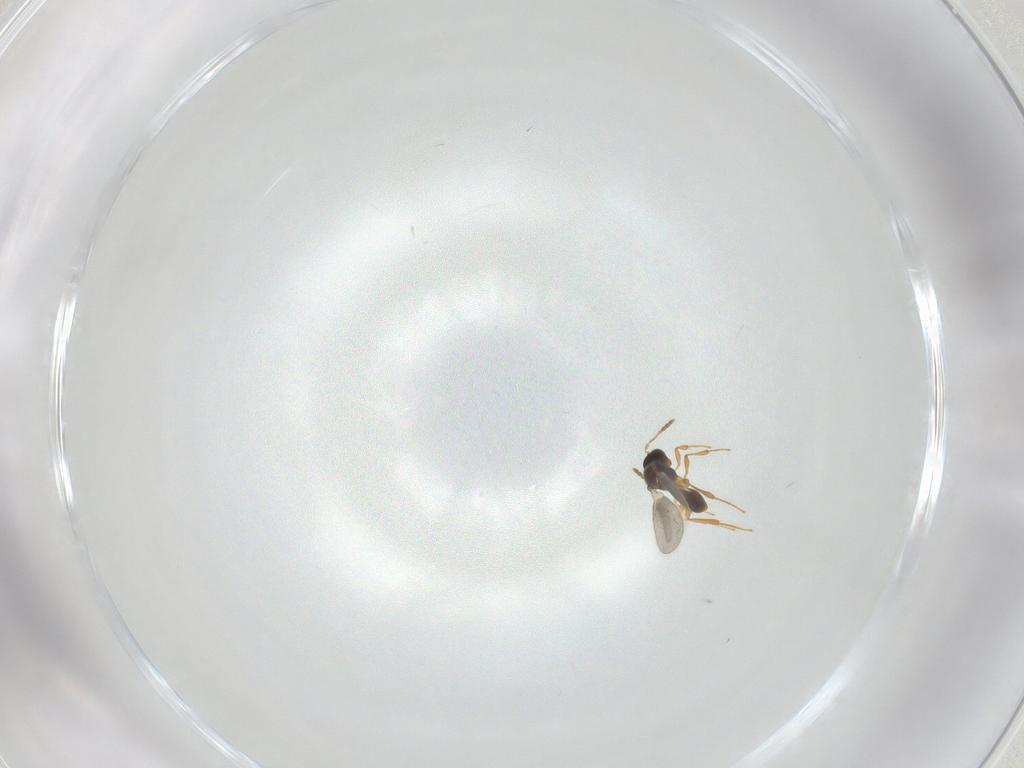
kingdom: Animalia
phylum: Arthropoda
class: Insecta
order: Hymenoptera
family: Platygastridae
